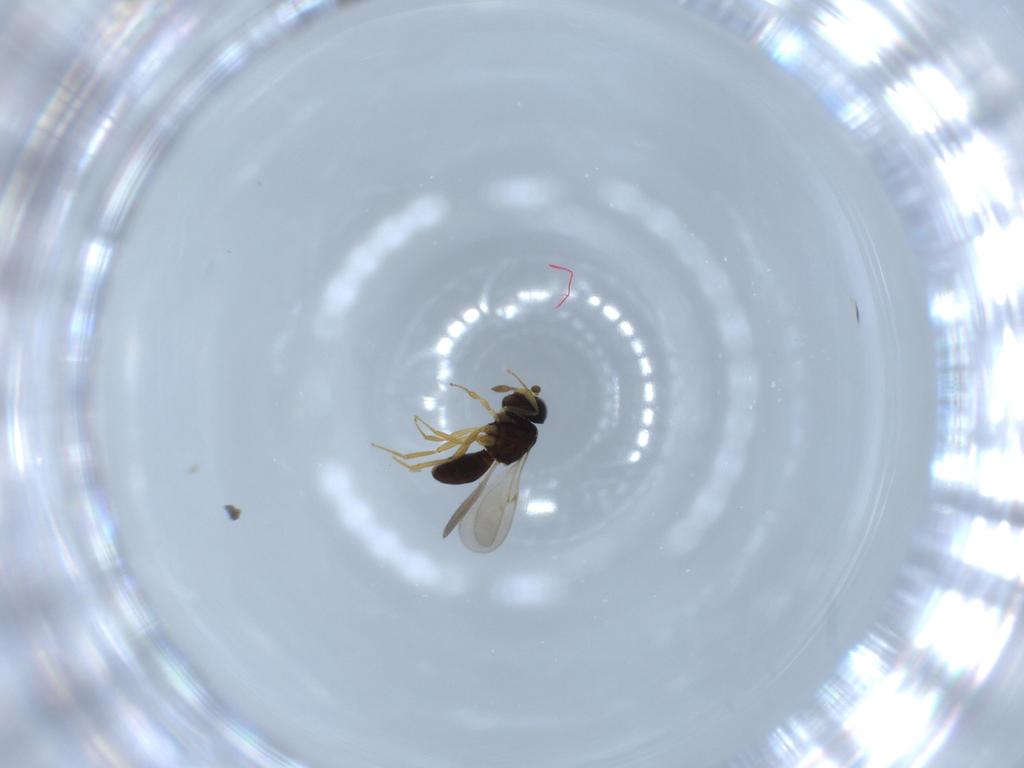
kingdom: Animalia
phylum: Arthropoda
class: Insecta
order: Hymenoptera
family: Scelionidae
